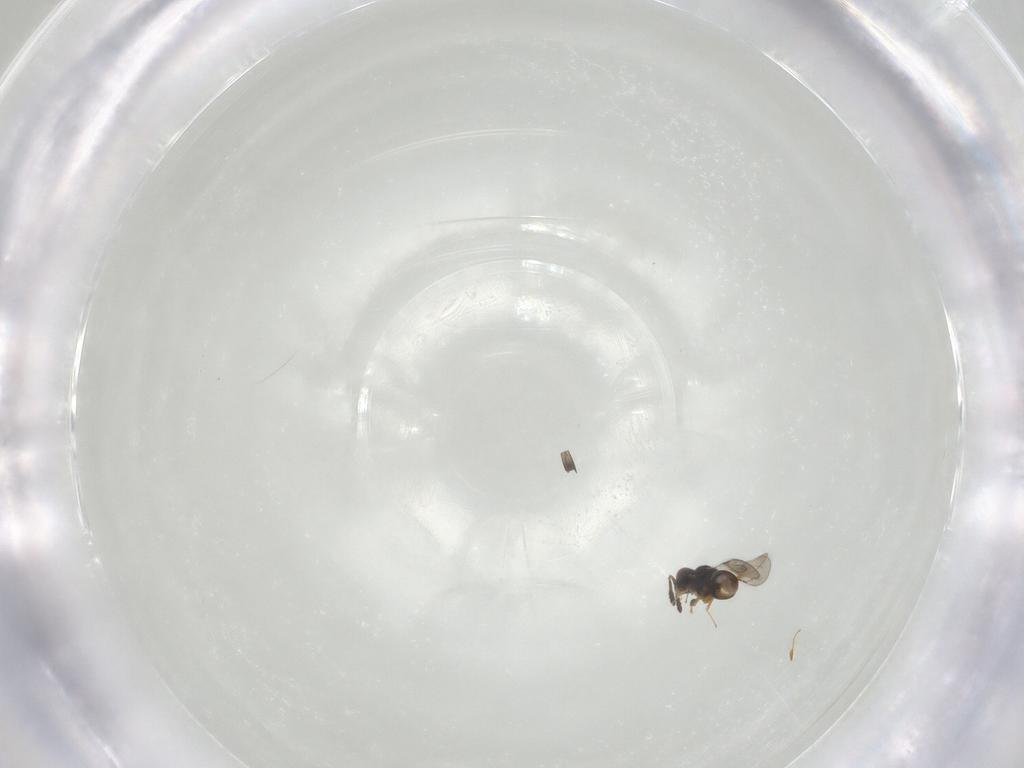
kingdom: Animalia
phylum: Arthropoda
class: Insecta
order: Hymenoptera
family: Ceraphronidae
